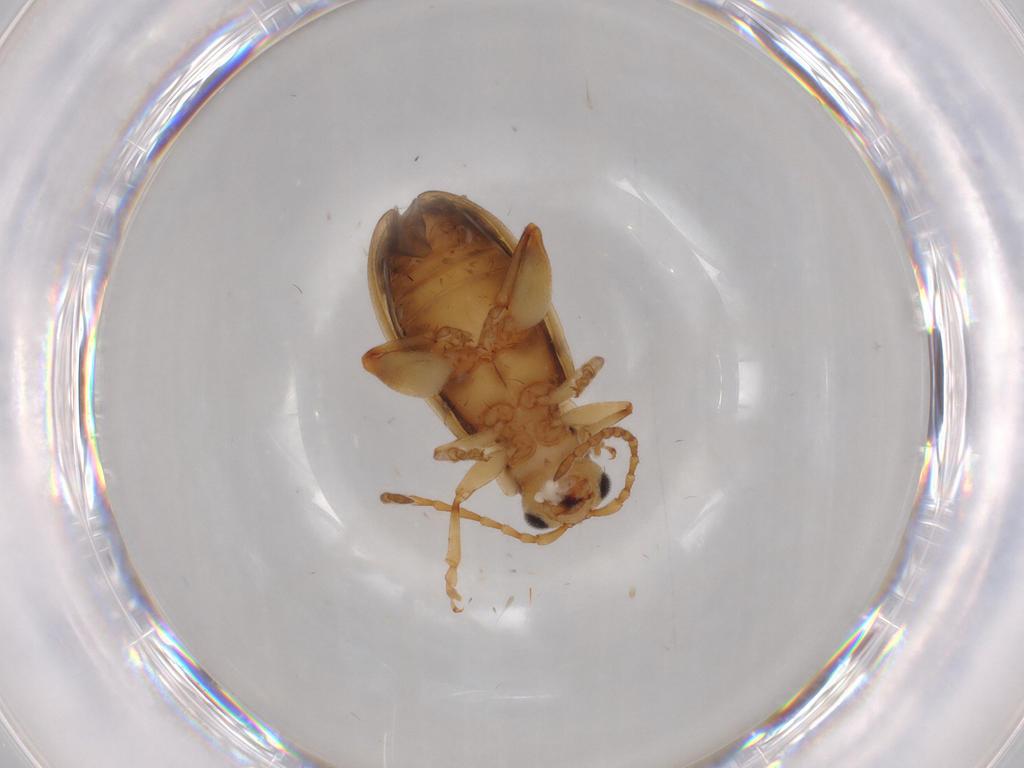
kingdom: Animalia
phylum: Arthropoda
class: Insecta
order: Coleoptera
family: Chrysomelidae
